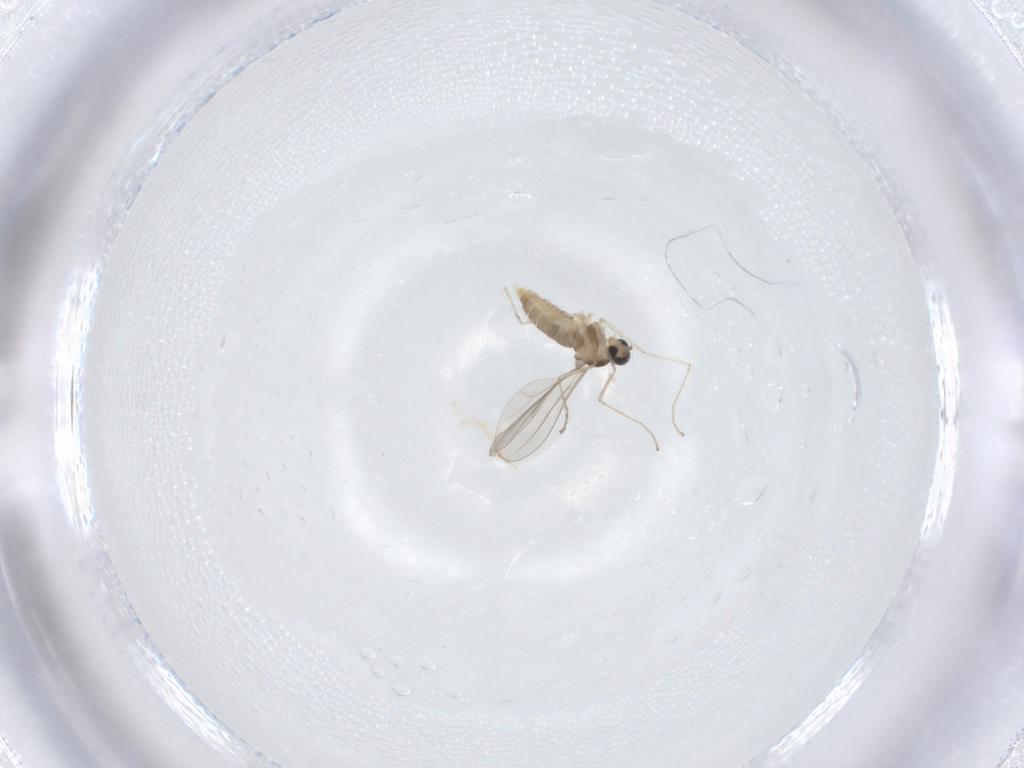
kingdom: Animalia
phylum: Arthropoda
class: Insecta
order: Diptera
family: Cecidomyiidae
